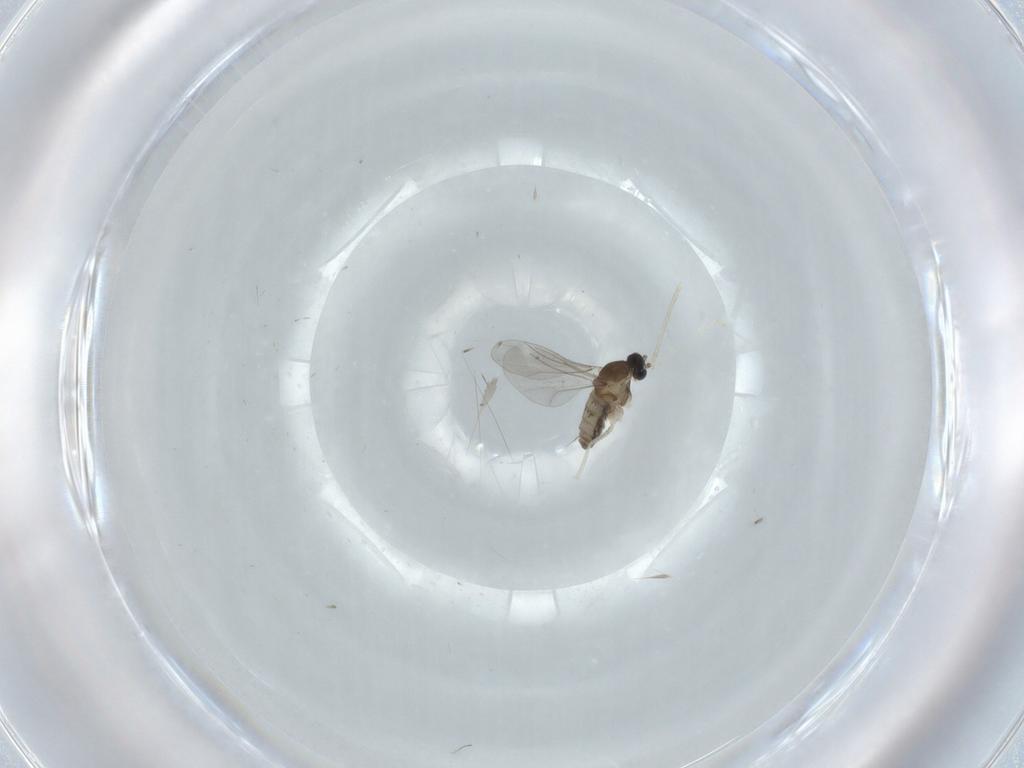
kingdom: Animalia
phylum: Arthropoda
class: Insecta
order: Diptera
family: Phoridae
